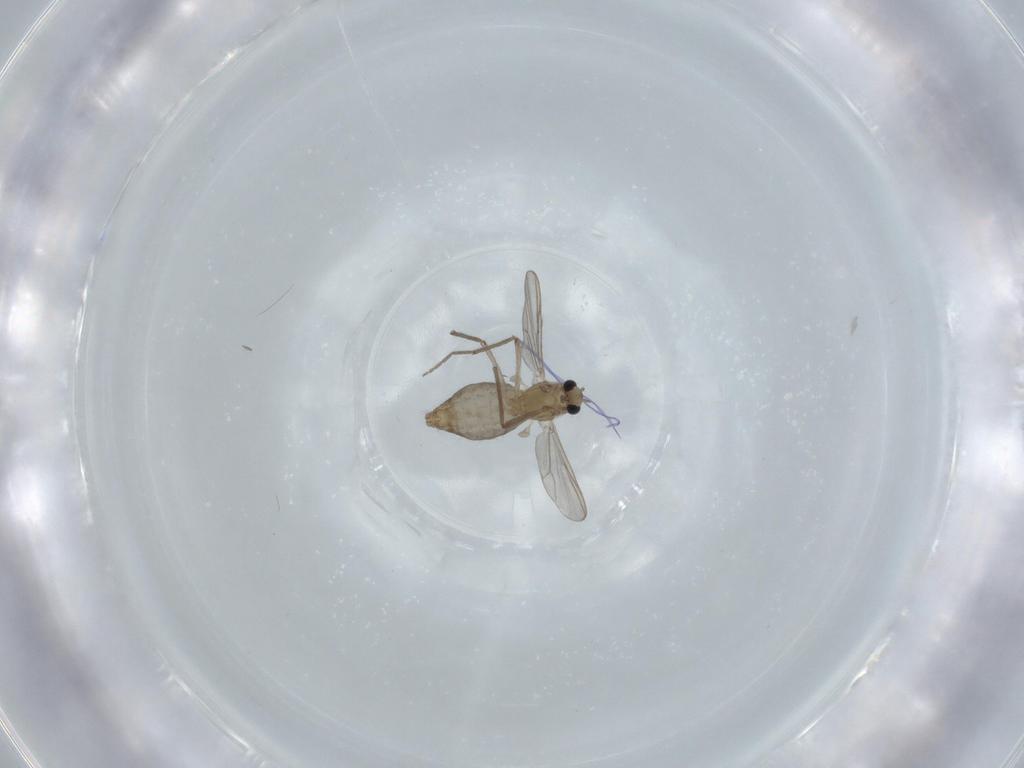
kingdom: Animalia
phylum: Arthropoda
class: Insecta
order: Diptera
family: Chironomidae
